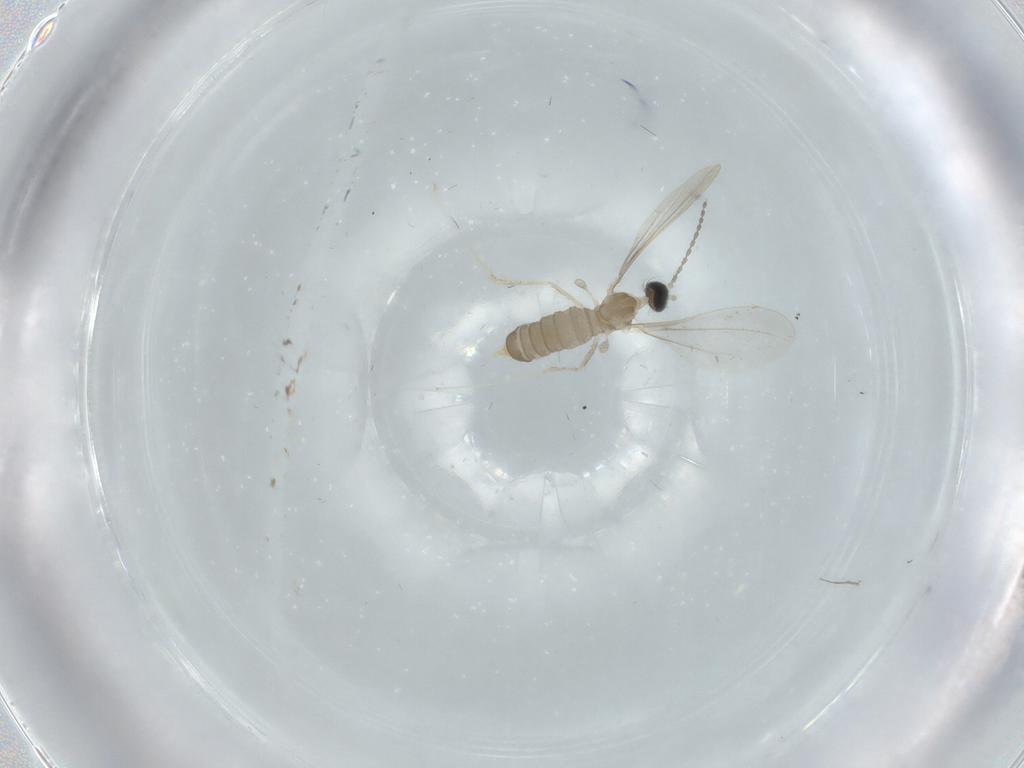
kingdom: Animalia
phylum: Arthropoda
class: Insecta
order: Diptera
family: Cecidomyiidae
